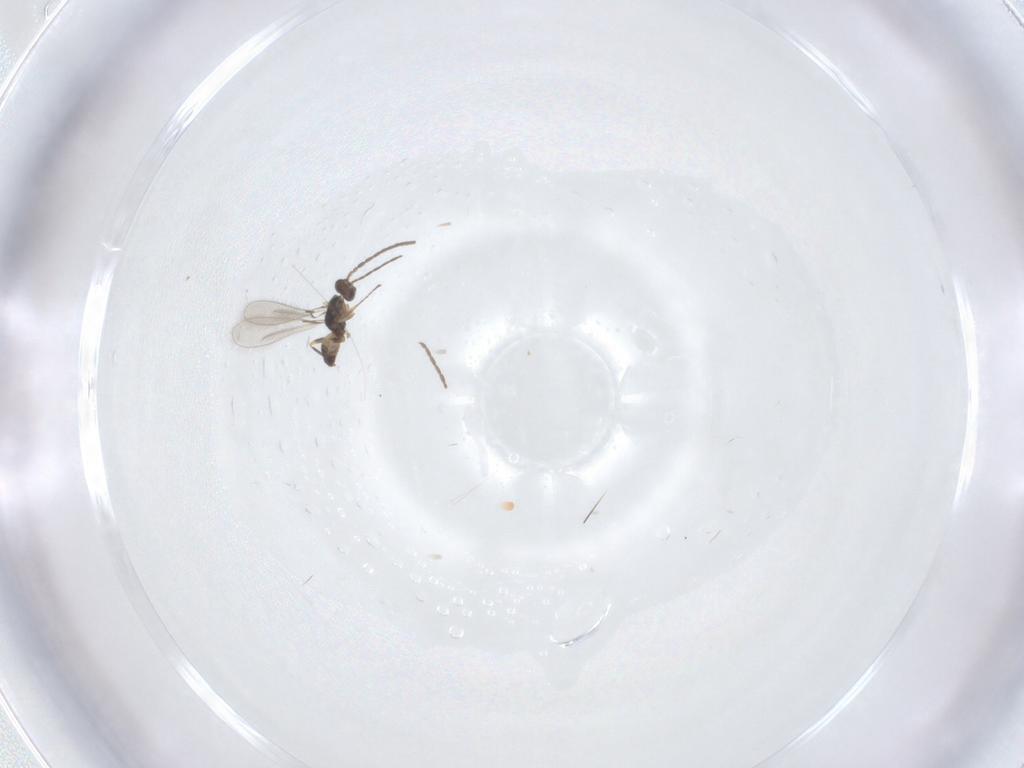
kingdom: Animalia
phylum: Arthropoda
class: Insecta
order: Hymenoptera
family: Mymaridae
